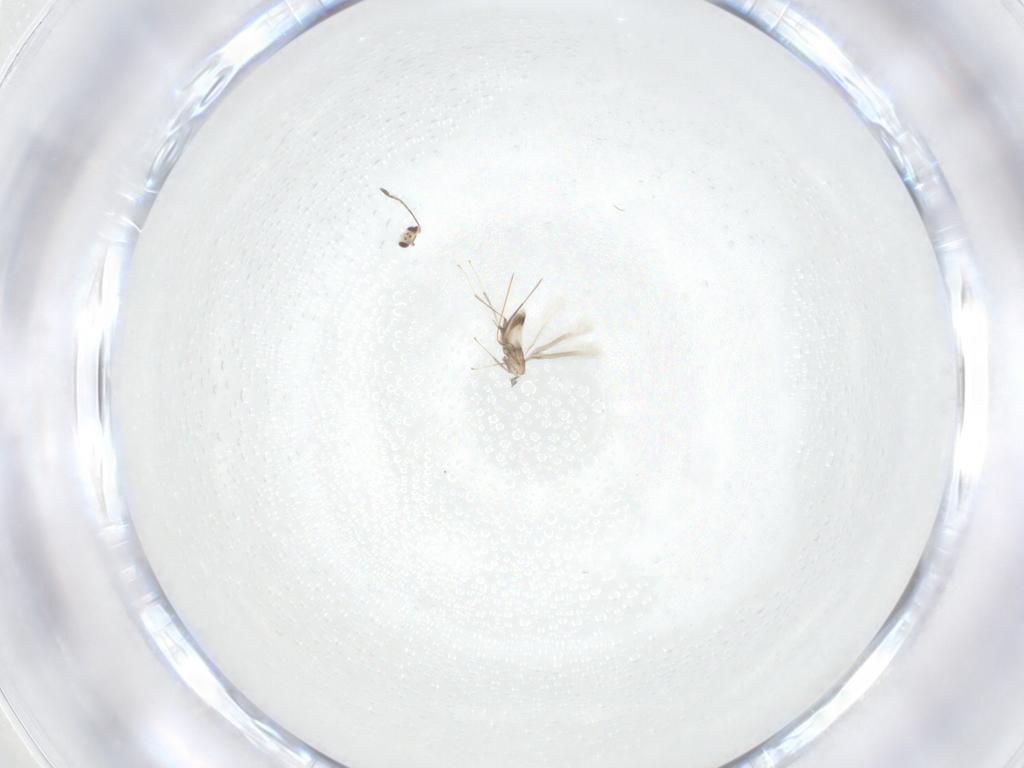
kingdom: Animalia
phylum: Arthropoda
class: Insecta
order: Hymenoptera
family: Mymaridae
